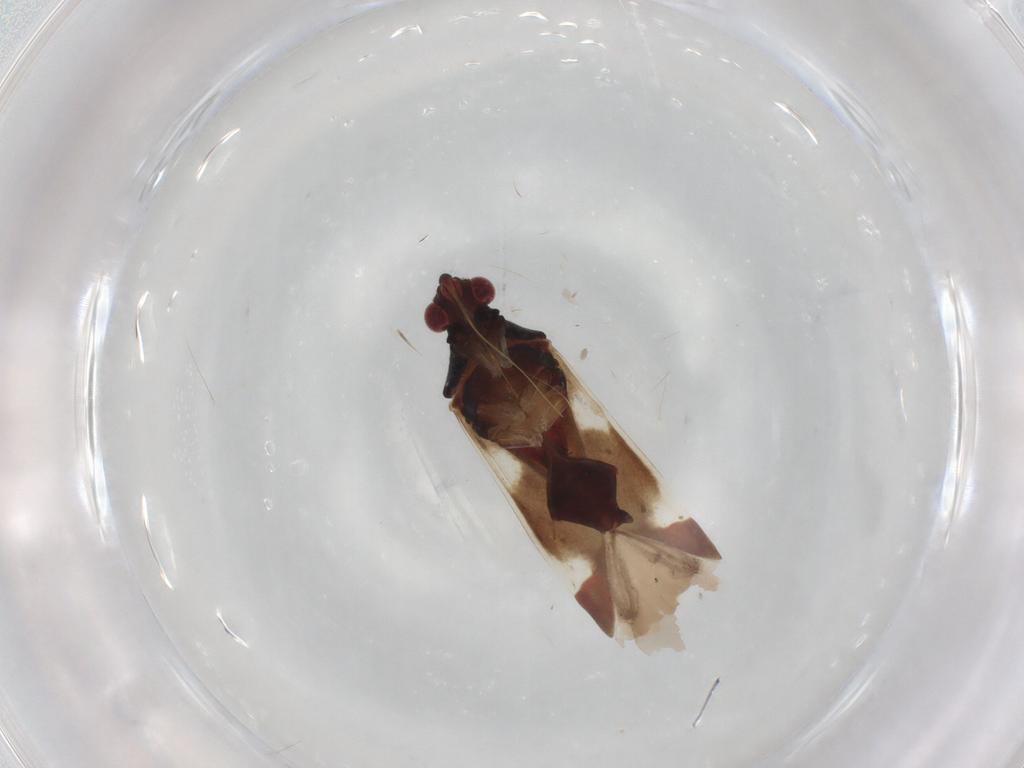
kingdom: Animalia
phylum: Arthropoda
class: Insecta
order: Hemiptera
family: Miridae
